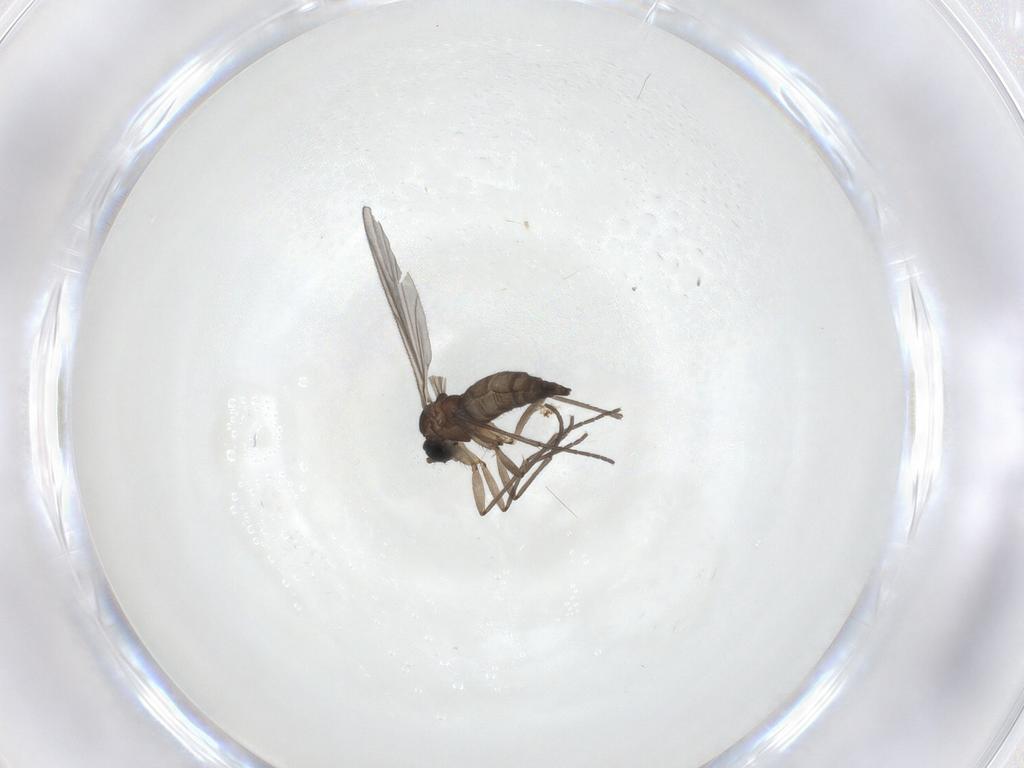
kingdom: Animalia
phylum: Arthropoda
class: Insecta
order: Diptera
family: Sciaridae
